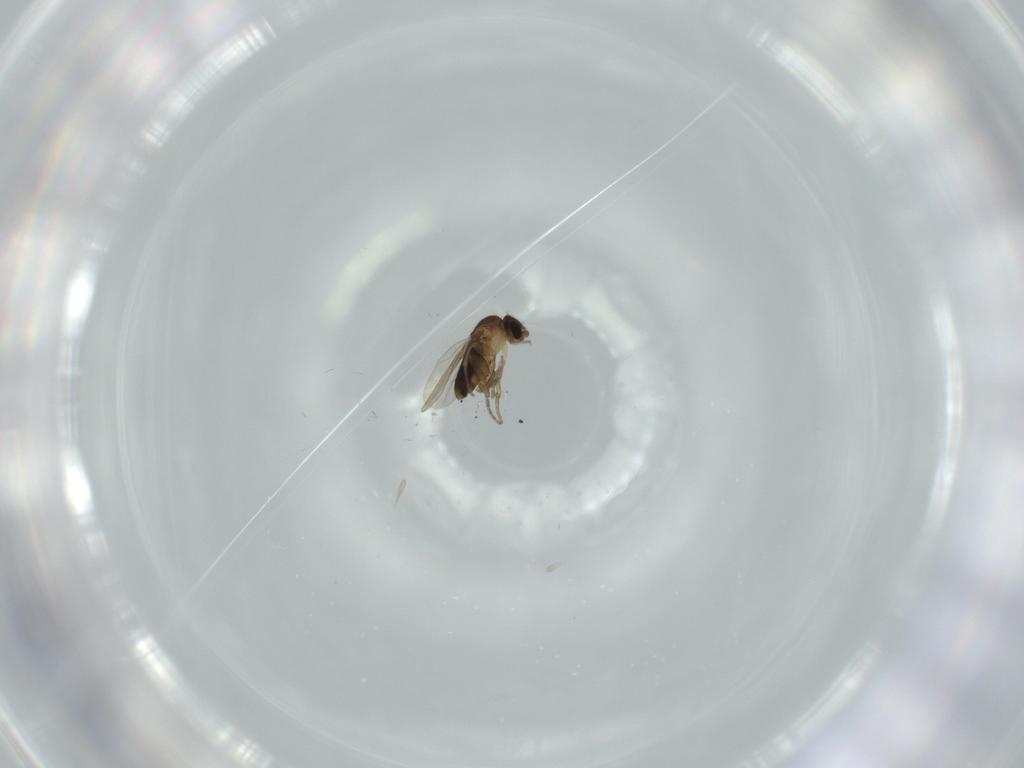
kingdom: Animalia
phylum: Arthropoda
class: Insecta
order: Diptera
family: Phoridae
